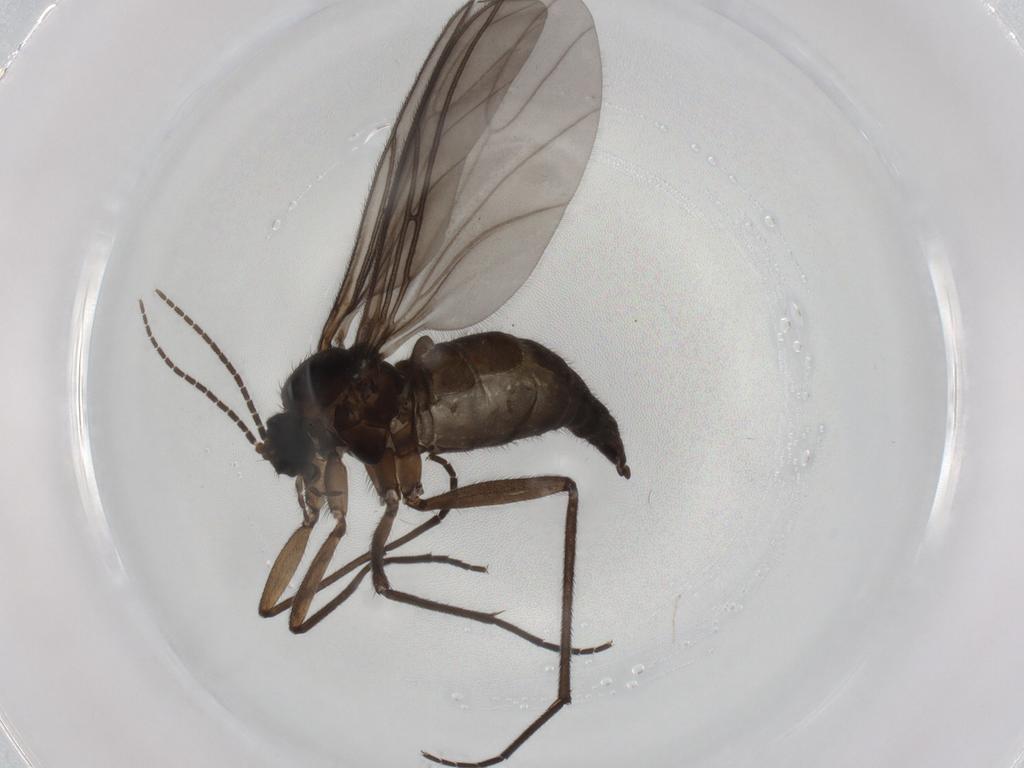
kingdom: Animalia
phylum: Arthropoda
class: Insecta
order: Diptera
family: Sciaridae
